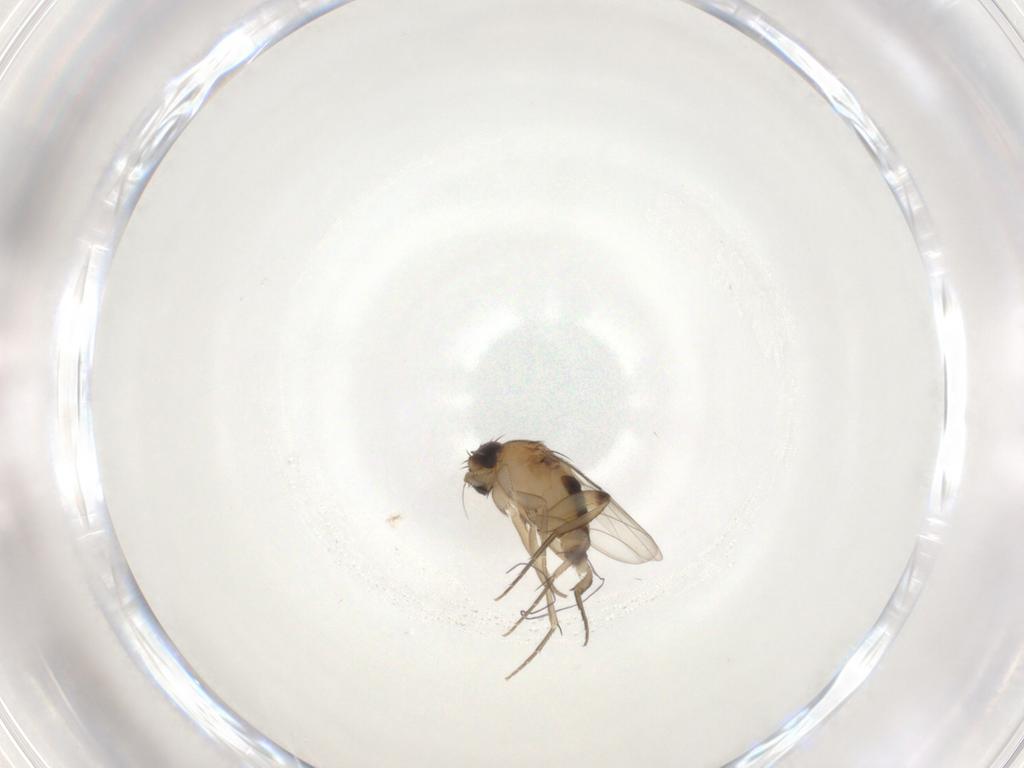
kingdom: Animalia
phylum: Arthropoda
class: Insecta
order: Diptera
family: Phoridae
